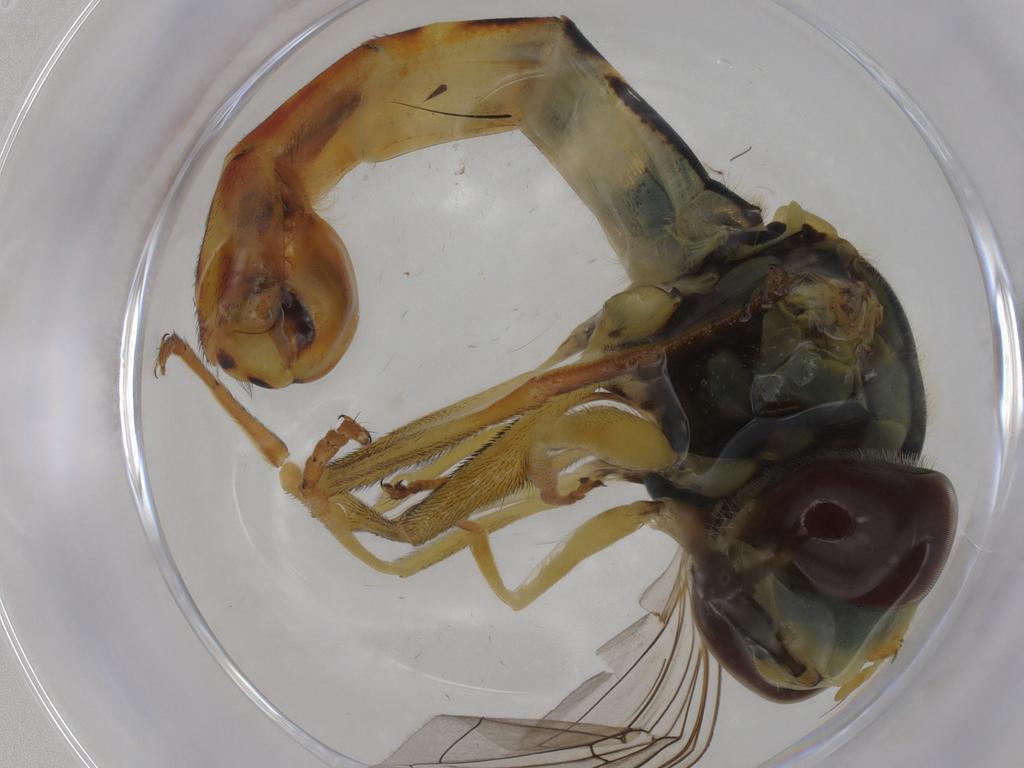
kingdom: Animalia
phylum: Arthropoda
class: Insecta
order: Diptera
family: Syrphidae
